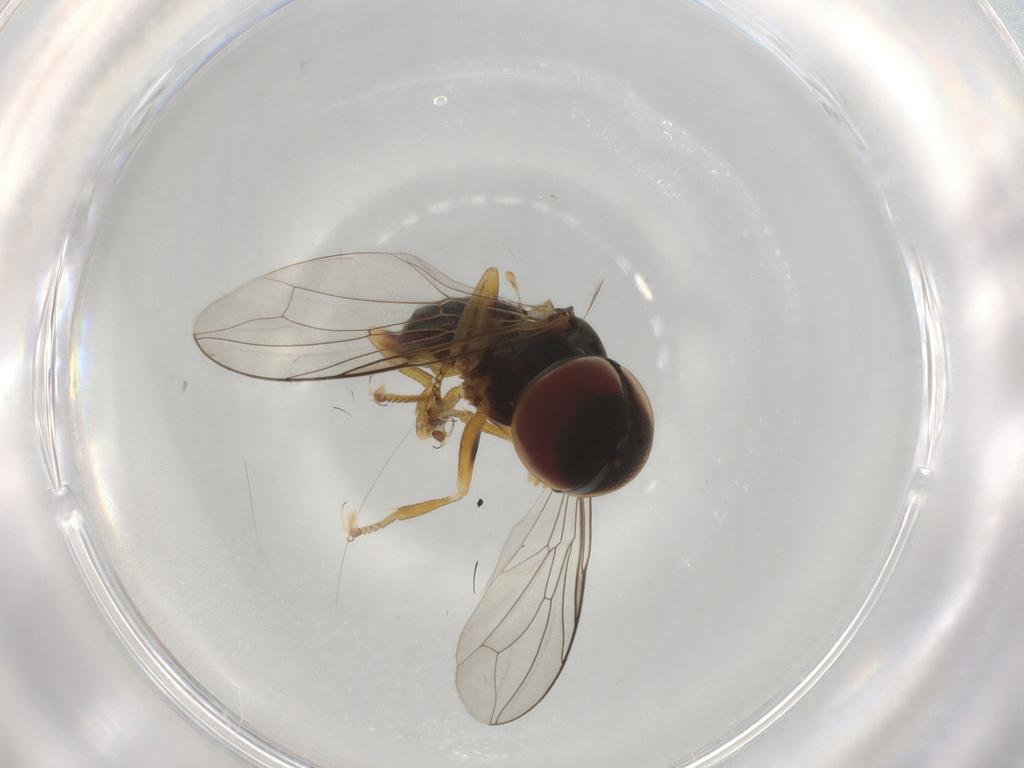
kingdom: Animalia
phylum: Arthropoda
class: Insecta
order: Diptera
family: Pipunculidae
